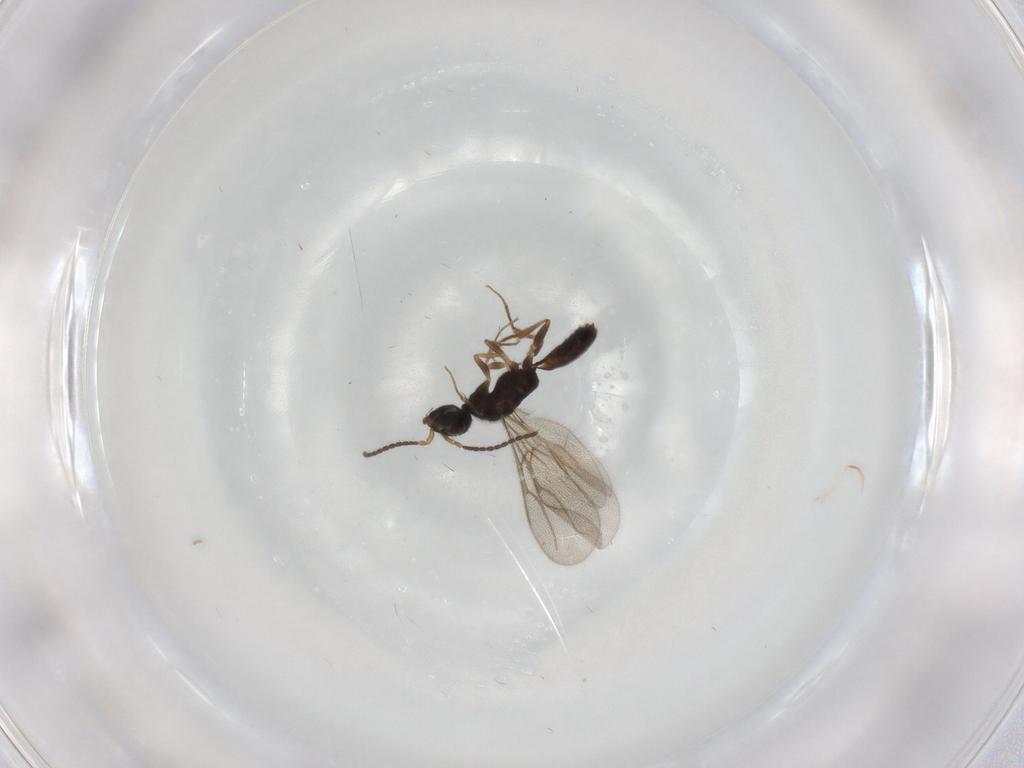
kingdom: Animalia
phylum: Arthropoda
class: Insecta
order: Hymenoptera
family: Bethylidae
